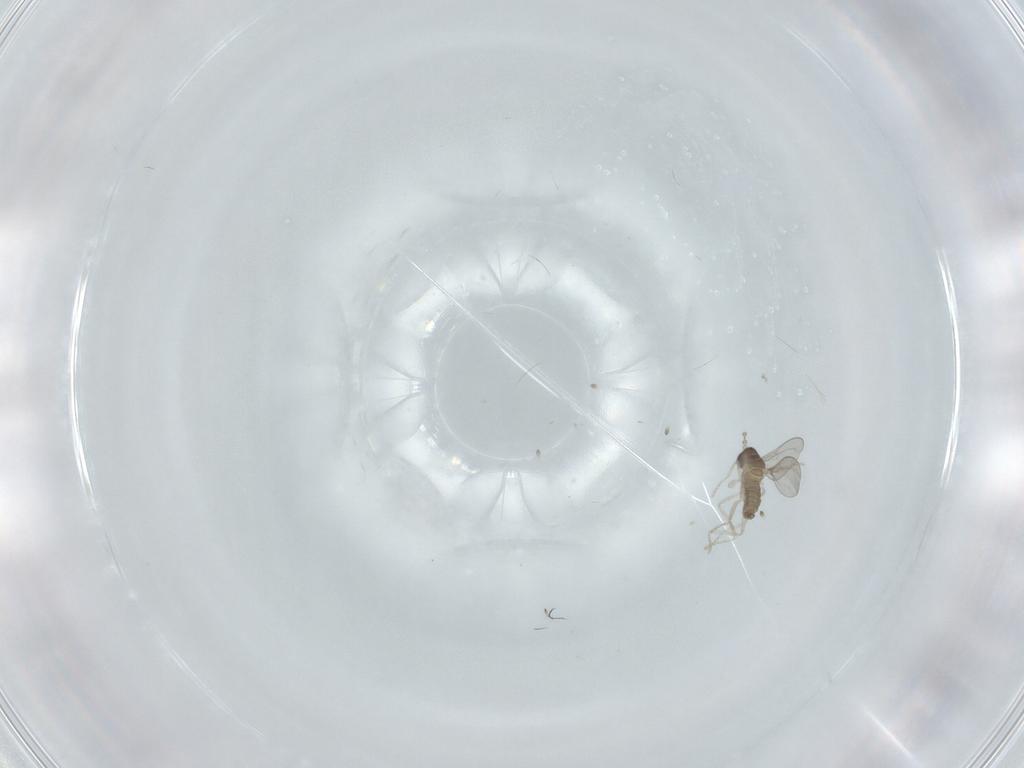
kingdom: Animalia
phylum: Arthropoda
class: Insecta
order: Diptera
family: Cecidomyiidae
